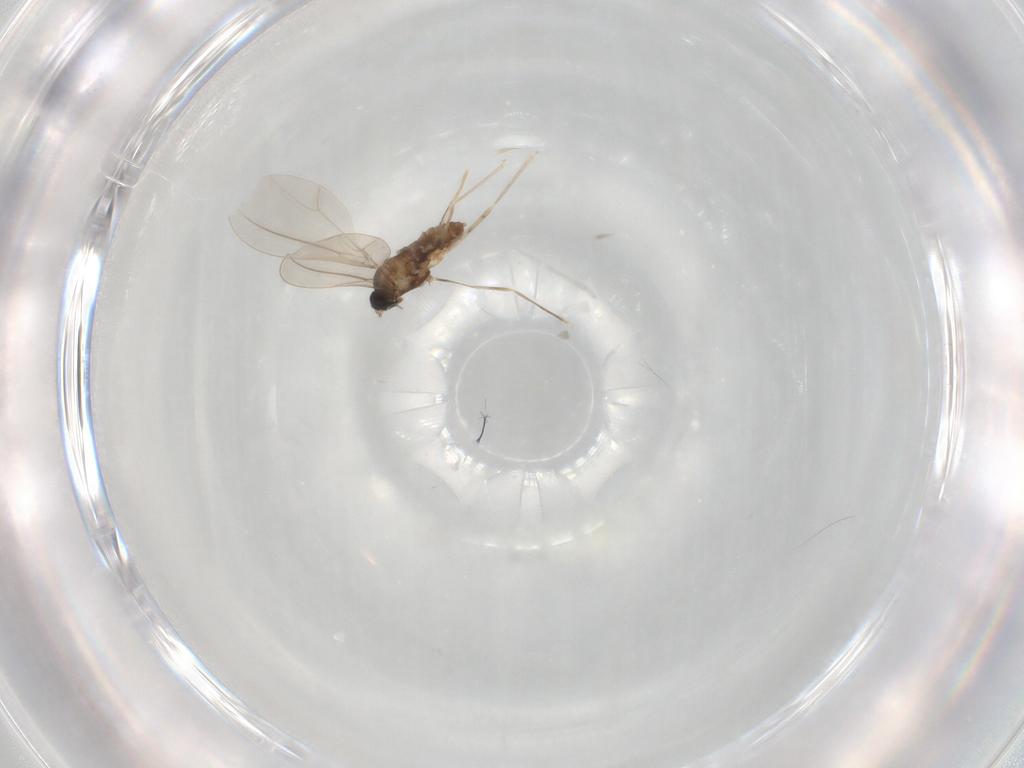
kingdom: Animalia
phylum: Arthropoda
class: Insecta
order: Diptera
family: Cecidomyiidae
